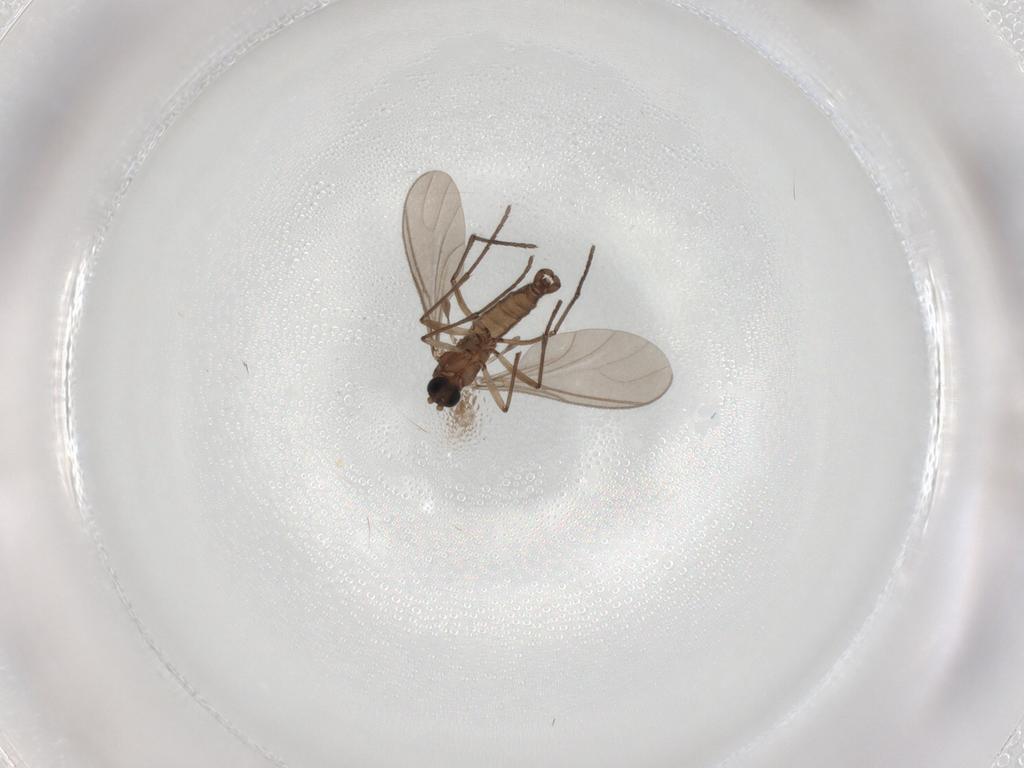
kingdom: Animalia
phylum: Arthropoda
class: Insecta
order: Diptera
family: Sciaridae
